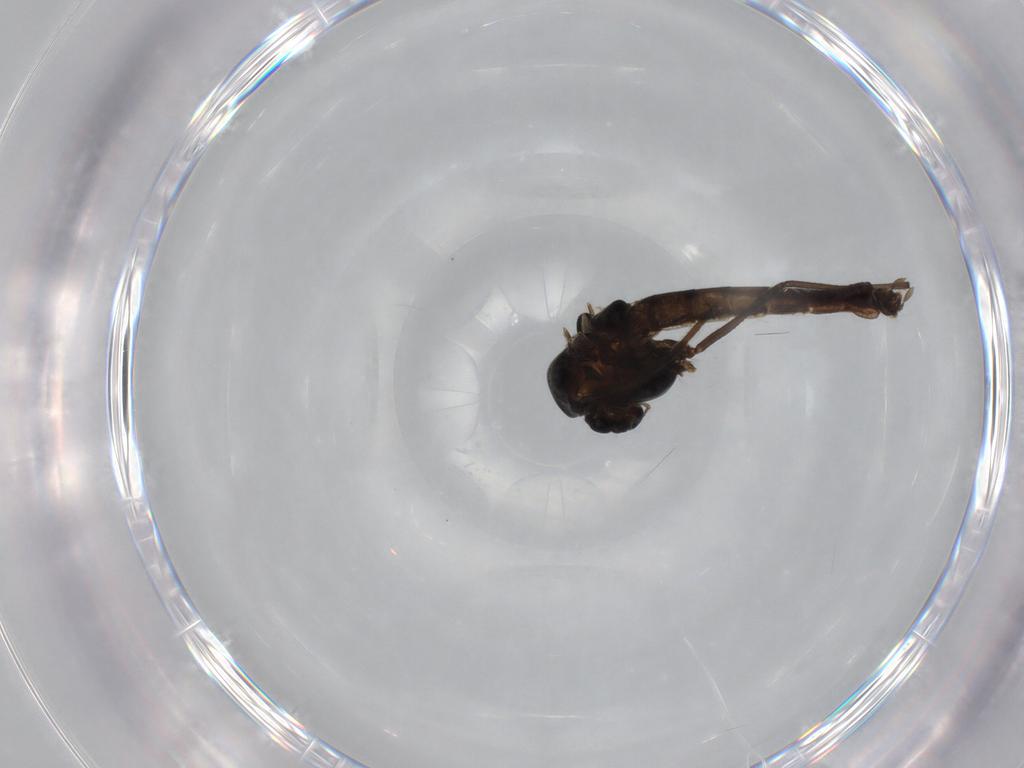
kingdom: Animalia
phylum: Arthropoda
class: Insecta
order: Diptera
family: Chironomidae
